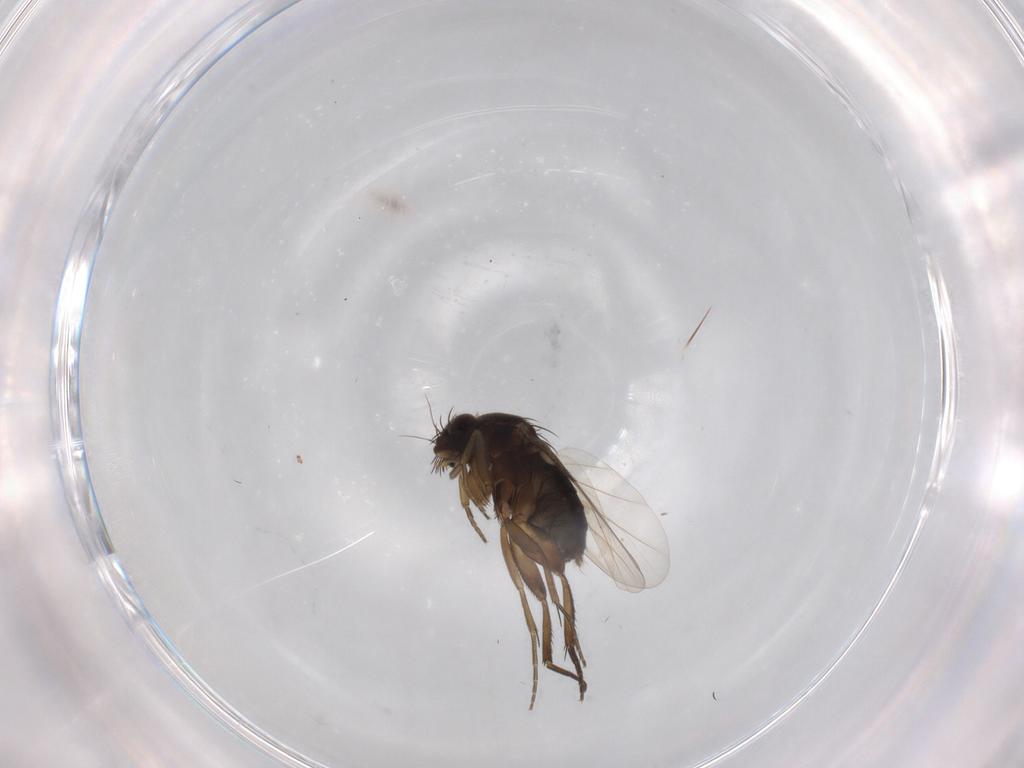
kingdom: Animalia
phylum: Arthropoda
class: Insecta
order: Diptera
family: Phoridae
